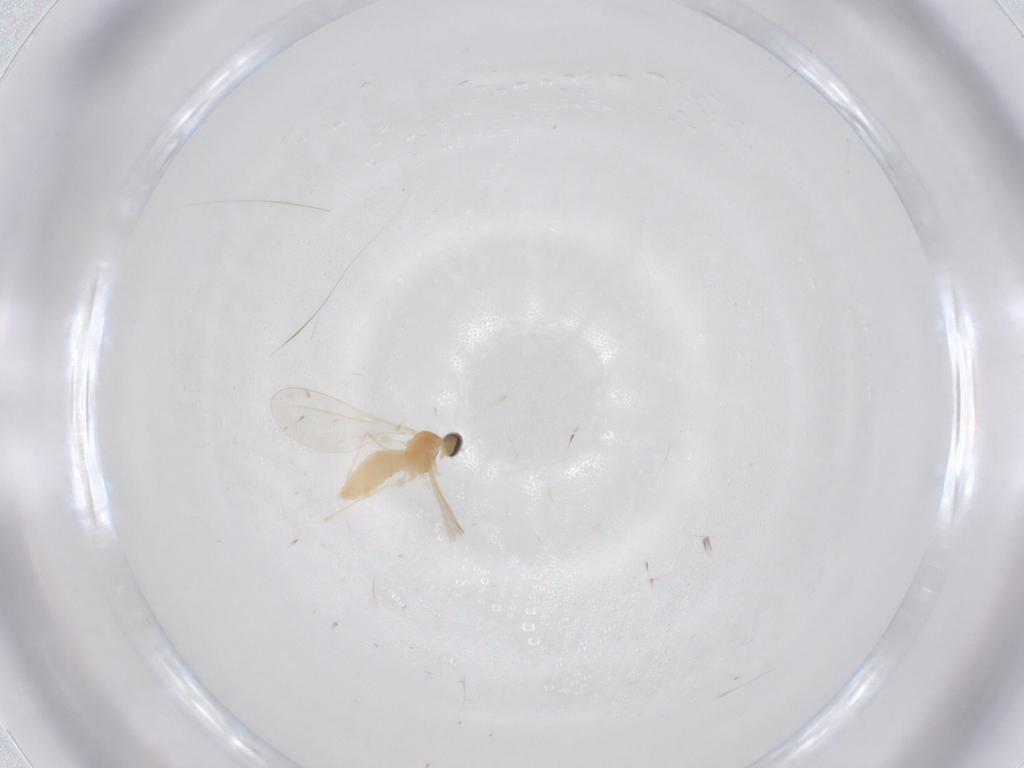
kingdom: Animalia
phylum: Arthropoda
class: Insecta
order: Diptera
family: Cecidomyiidae
